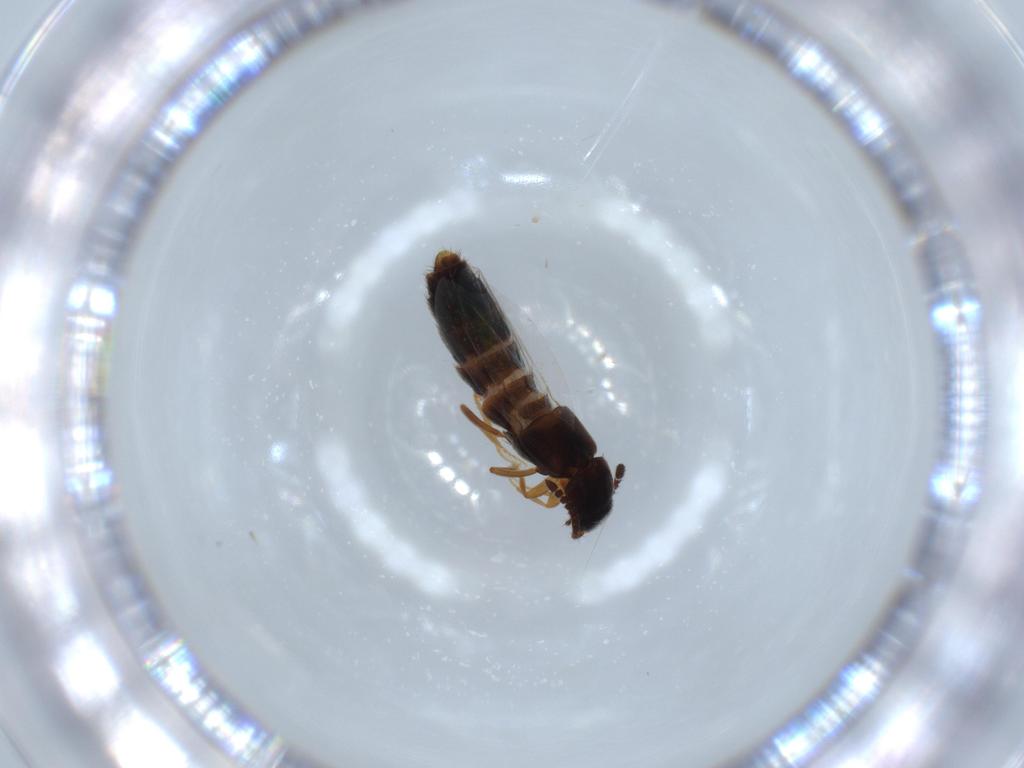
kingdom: Animalia
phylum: Arthropoda
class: Insecta
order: Coleoptera
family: Staphylinidae
